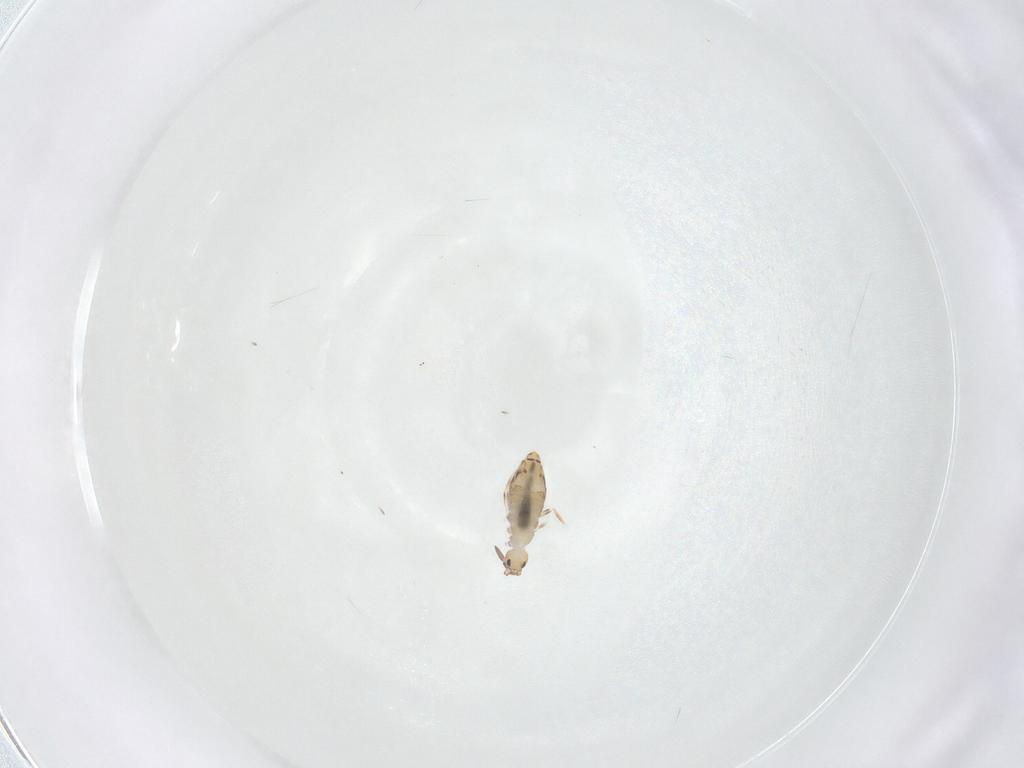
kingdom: Animalia
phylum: Arthropoda
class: Collembola
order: Entomobryomorpha
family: Entomobryidae
